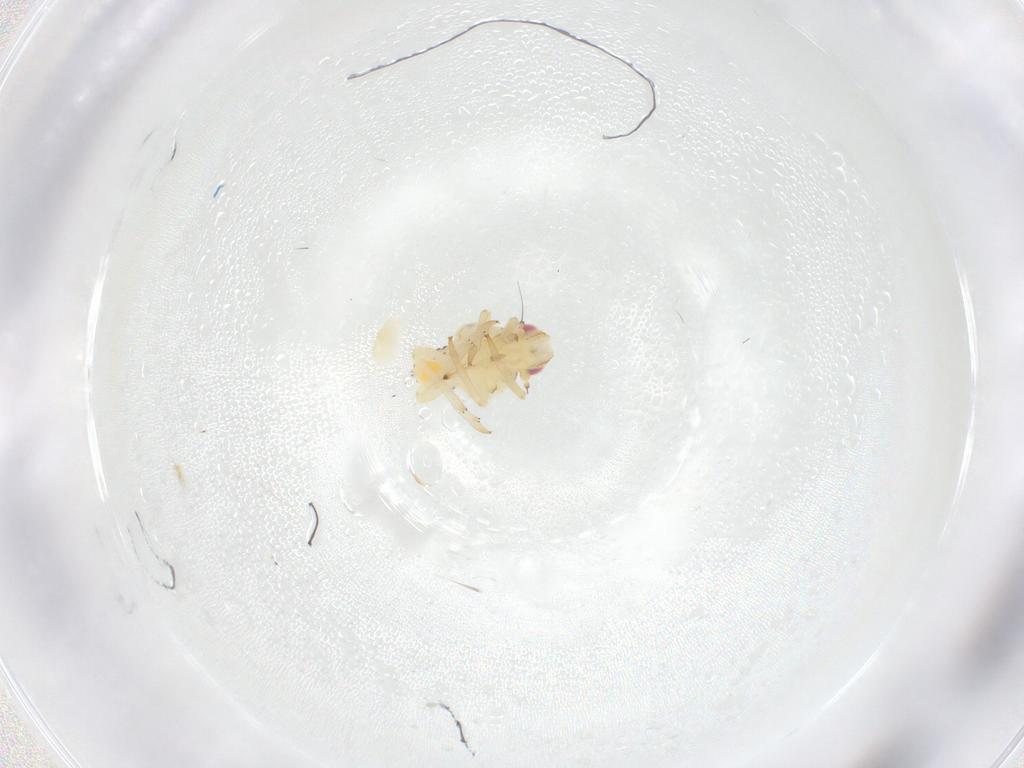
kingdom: Animalia
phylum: Arthropoda
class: Insecta
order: Hemiptera
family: Tropiduchidae
